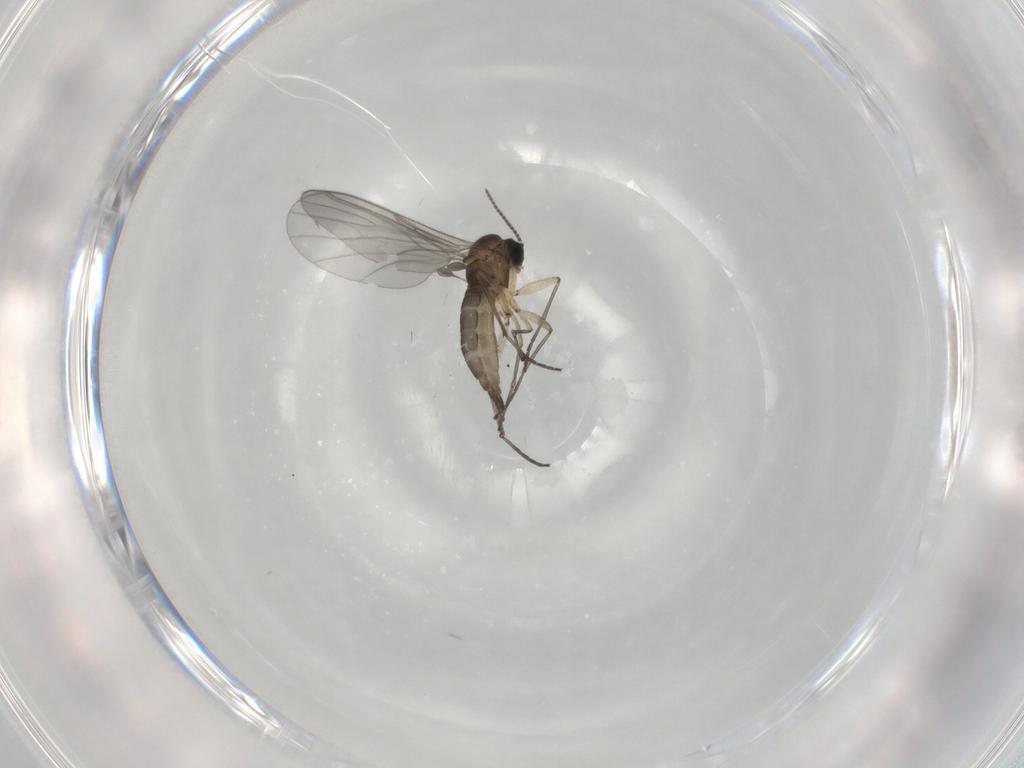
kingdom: Animalia
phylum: Arthropoda
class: Insecta
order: Diptera
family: Sciaridae
